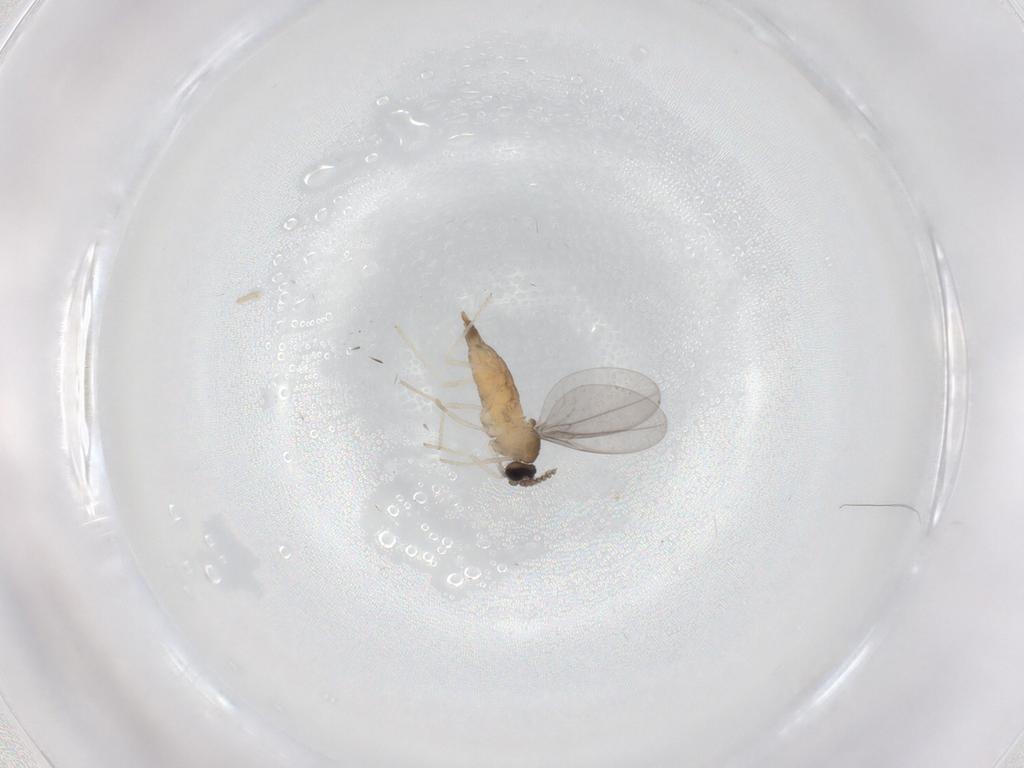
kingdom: Animalia
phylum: Arthropoda
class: Insecta
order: Diptera
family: Cecidomyiidae
